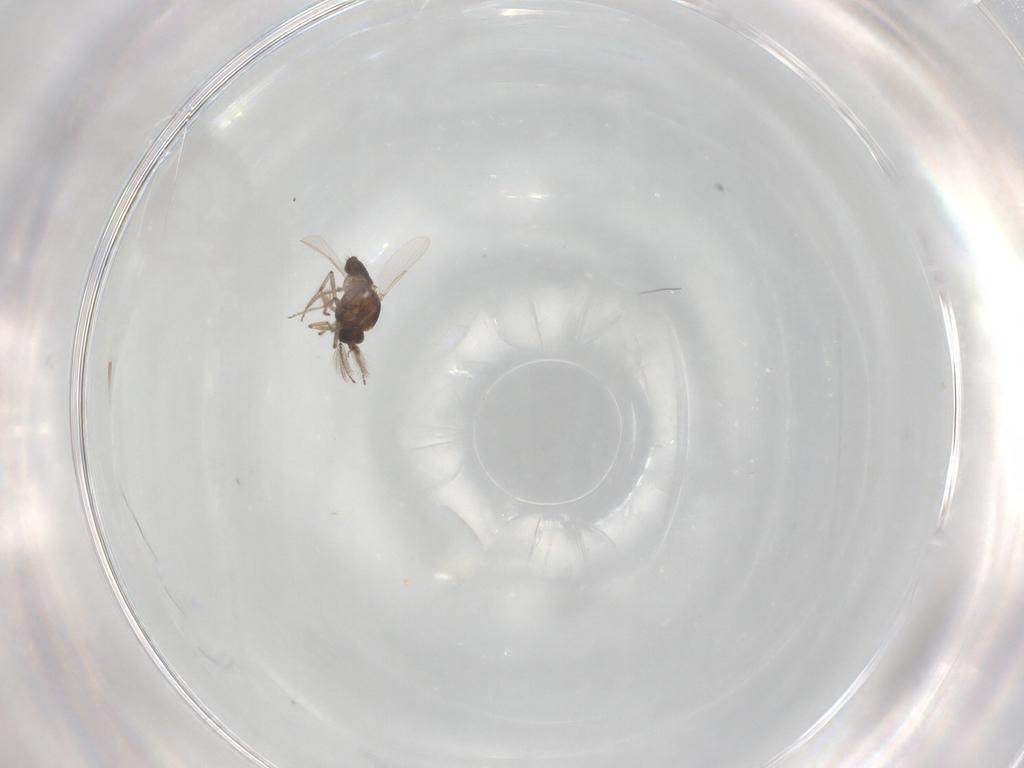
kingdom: Animalia
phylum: Arthropoda
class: Insecta
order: Diptera
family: Ceratopogonidae
